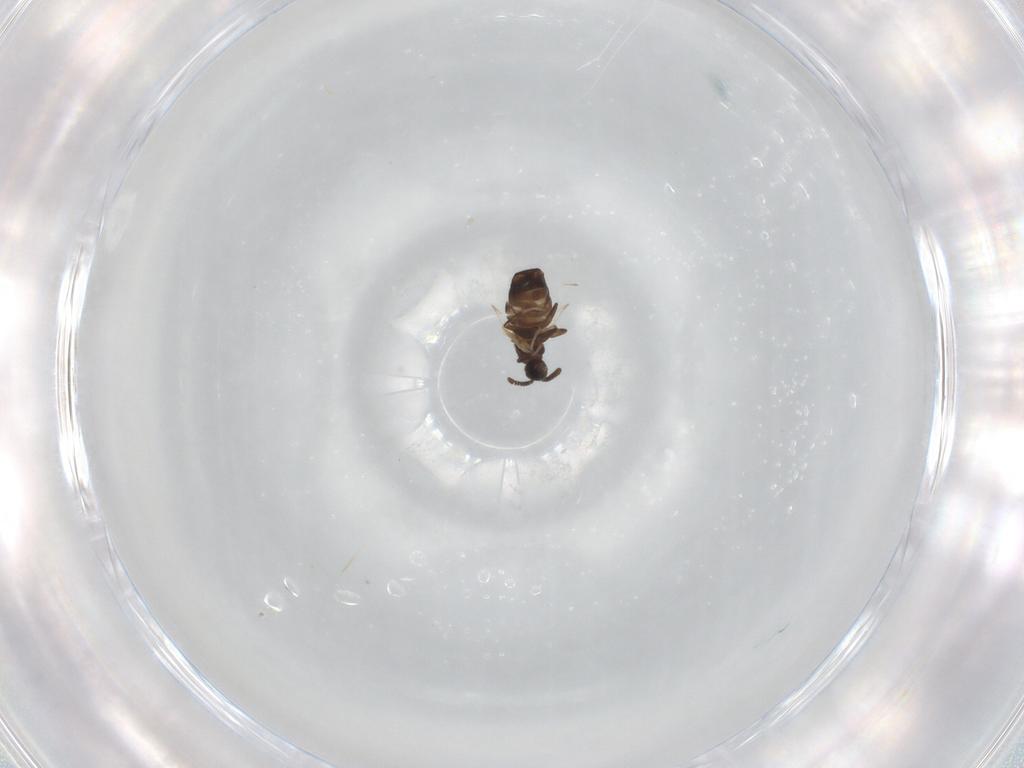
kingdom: Animalia
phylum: Arthropoda
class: Insecta
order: Diptera
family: Scatopsidae
